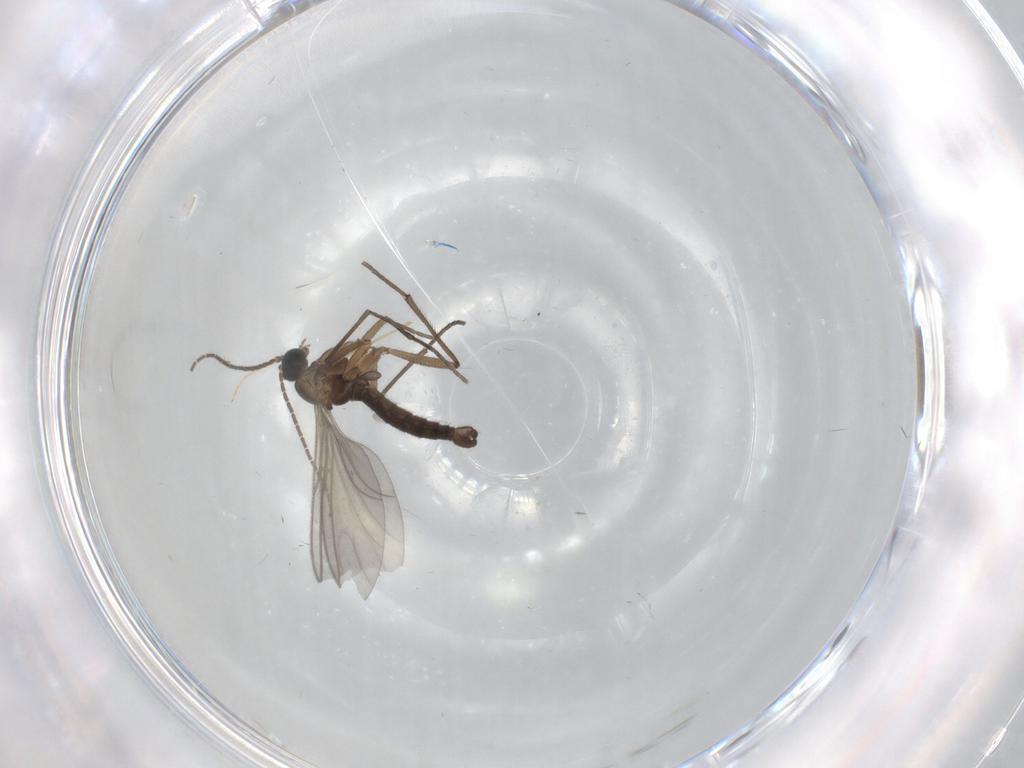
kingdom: Animalia
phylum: Arthropoda
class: Insecta
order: Diptera
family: Sciaridae
